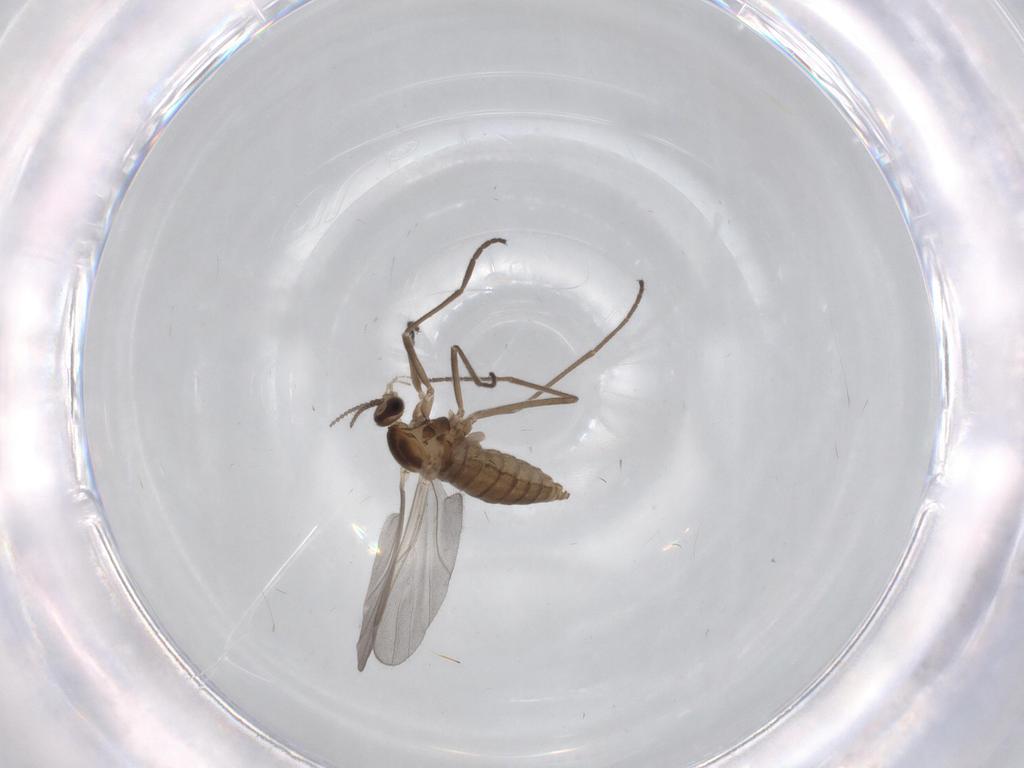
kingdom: Animalia
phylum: Arthropoda
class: Insecta
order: Diptera
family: Cecidomyiidae
